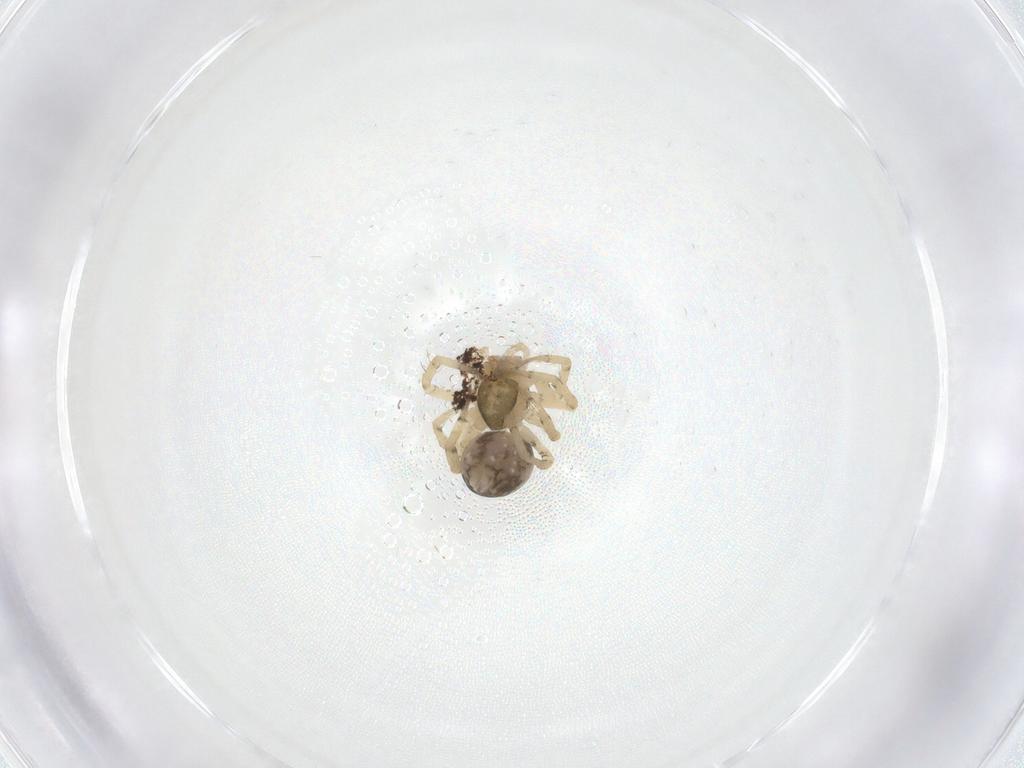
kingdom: Animalia
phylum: Arthropoda
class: Arachnida
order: Araneae
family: Theridiidae
